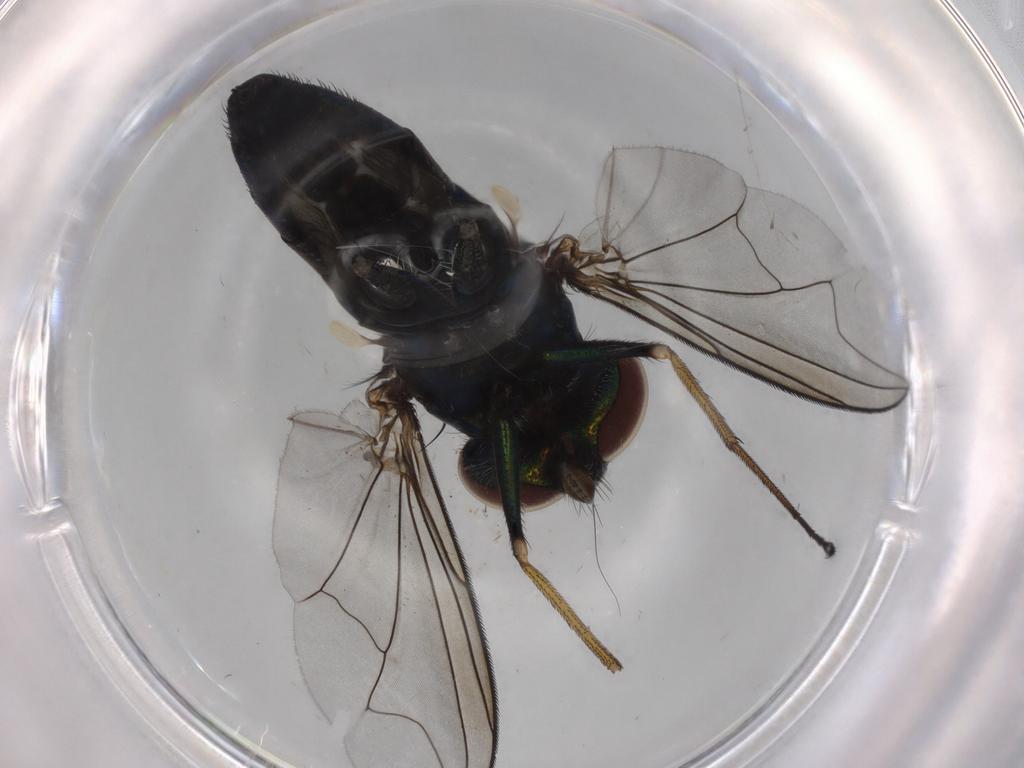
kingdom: Animalia
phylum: Arthropoda
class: Insecta
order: Diptera
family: Dolichopodidae
